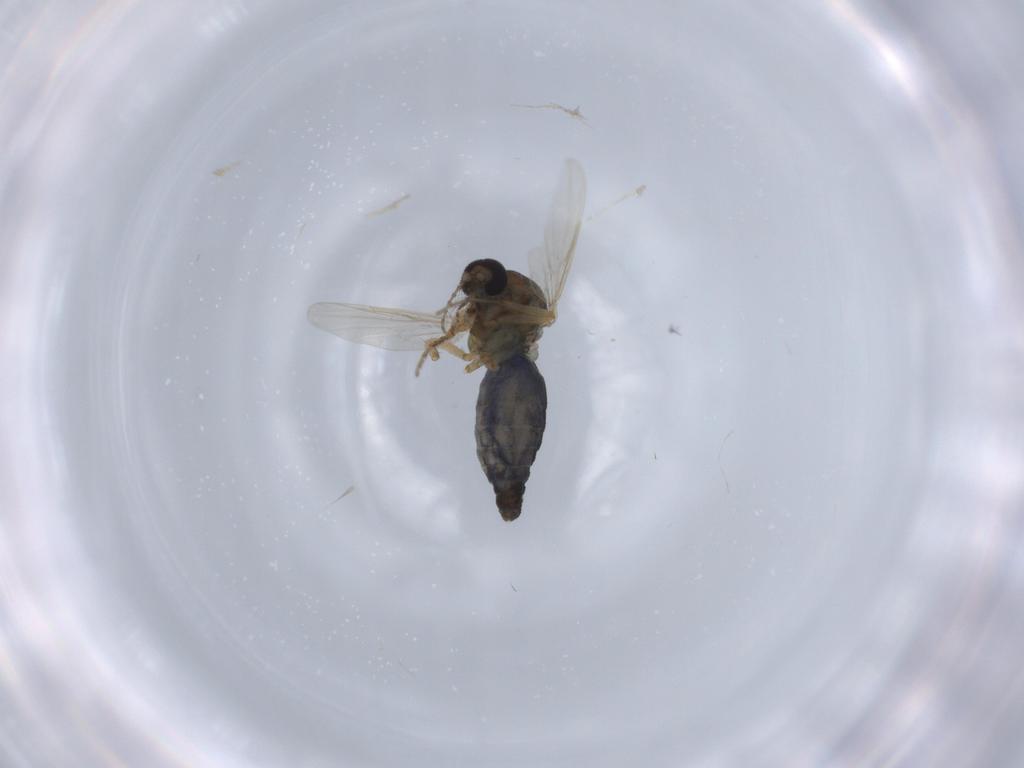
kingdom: Animalia
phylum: Arthropoda
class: Insecta
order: Diptera
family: Ceratopogonidae
